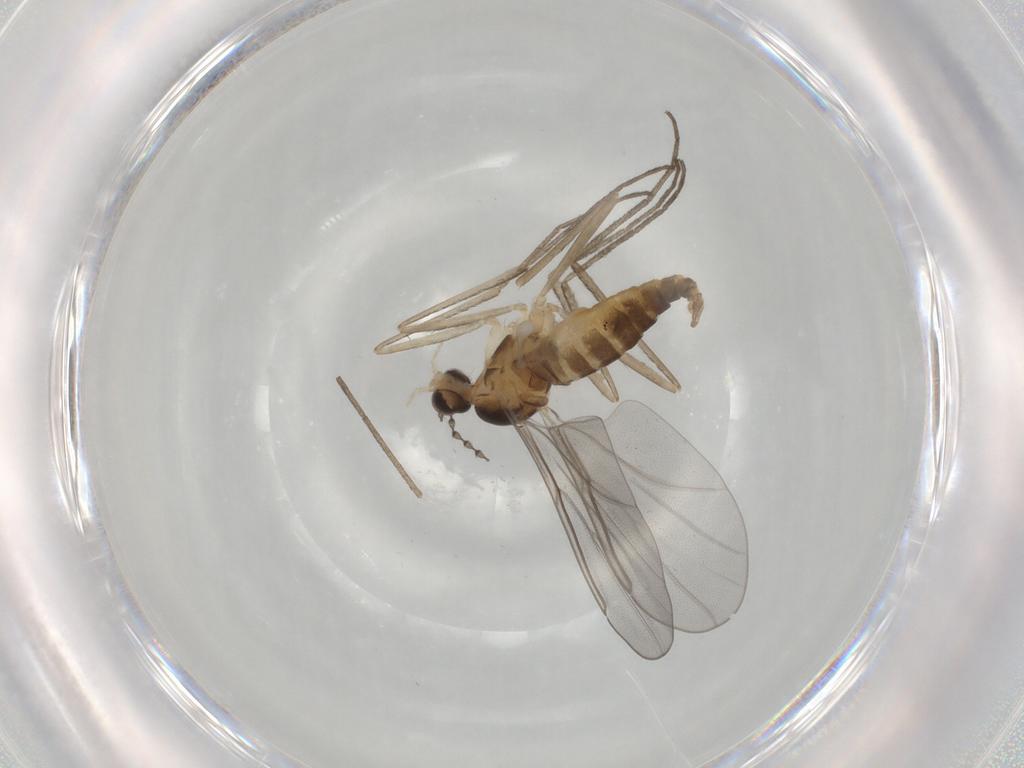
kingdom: Animalia
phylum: Arthropoda
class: Insecta
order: Diptera
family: Cecidomyiidae
